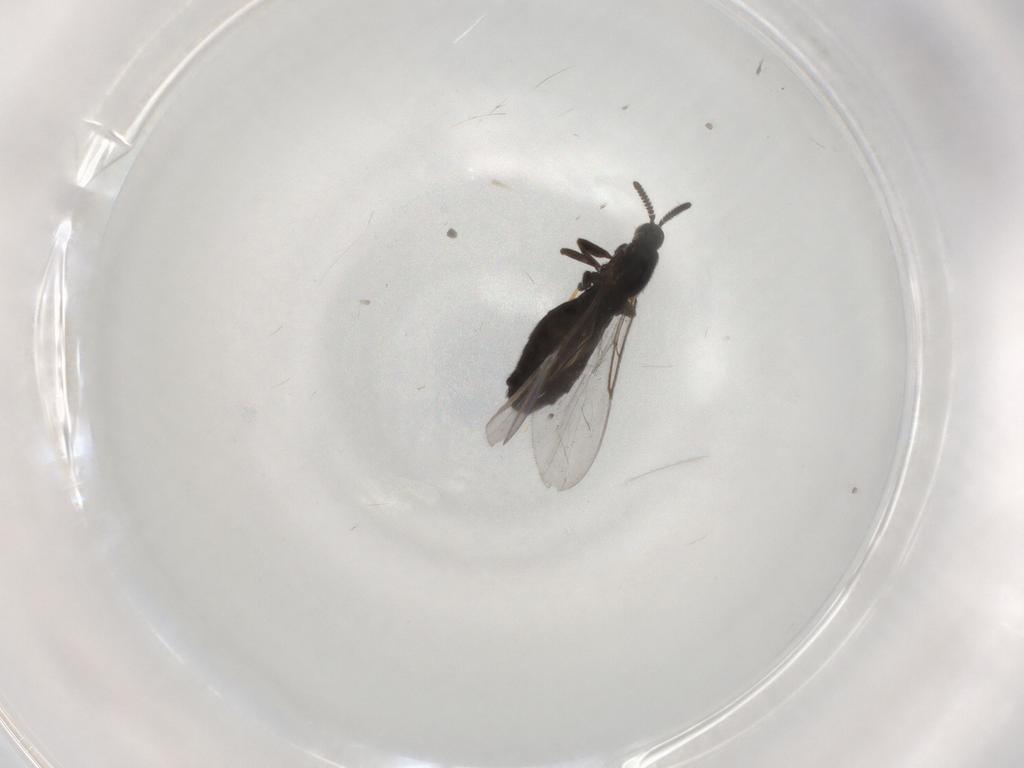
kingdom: Animalia
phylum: Arthropoda
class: Insecta
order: Diptera
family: Scatopsidae
